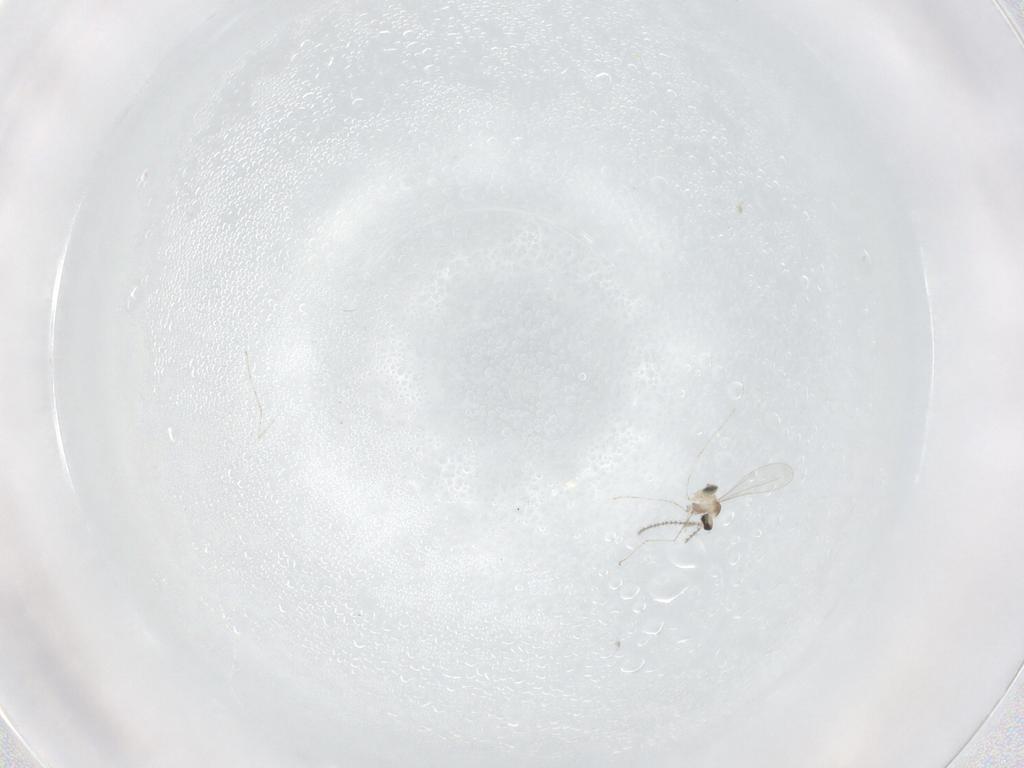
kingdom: Animalia
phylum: Arthropoda
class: Insecta
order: Diptera
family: Cecidomyiidae
